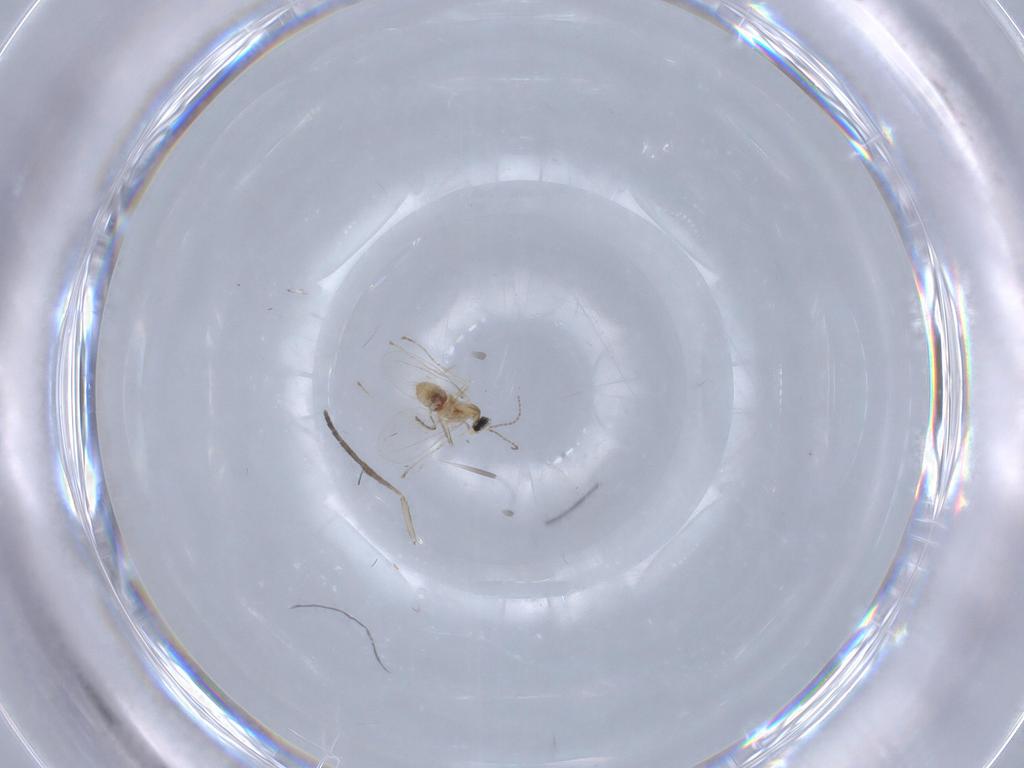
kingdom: Animalia
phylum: Arthropoda
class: Insecta
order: Diptera
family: Cecidomyiidae
